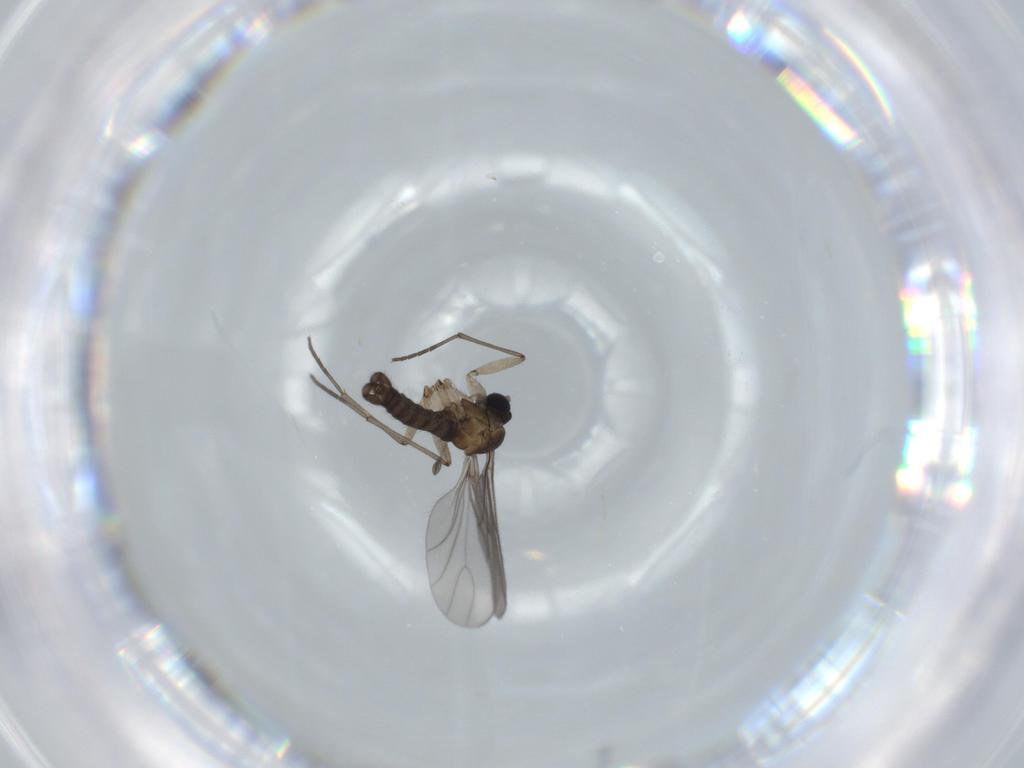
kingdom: Animalia
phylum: Arthropoda
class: Insecta
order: Diptera
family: Sciaridae
